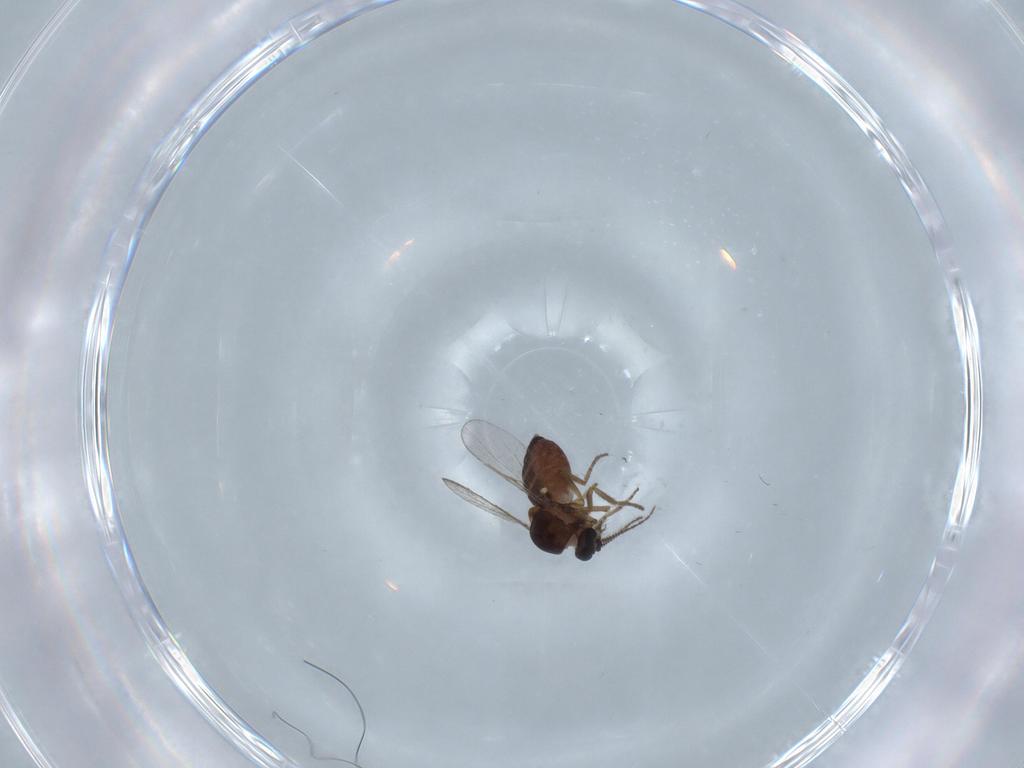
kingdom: Animalia
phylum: Arthropoda
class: Insecta
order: Diptera
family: Ceratopogonidae
